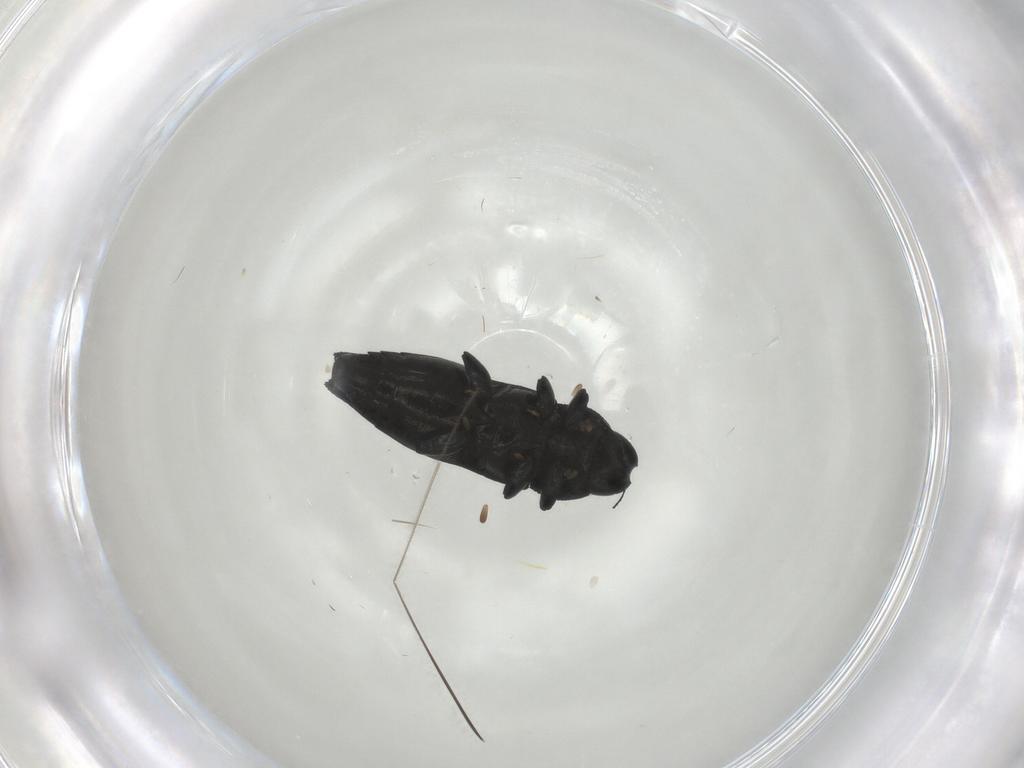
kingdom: Animalia
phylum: Arthropoda
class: Insecta
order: Coleoptera
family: Buprestidae
